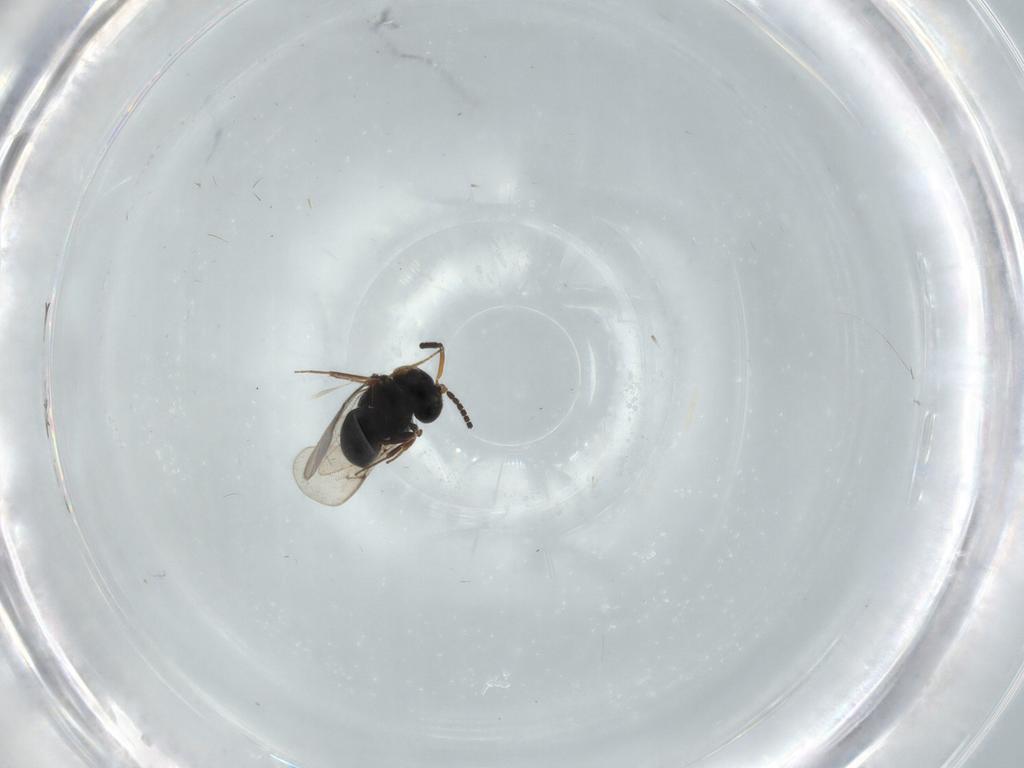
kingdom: Animalia
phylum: Arthropoda
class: Insecta
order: Hymenoptera
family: Scelionidae
